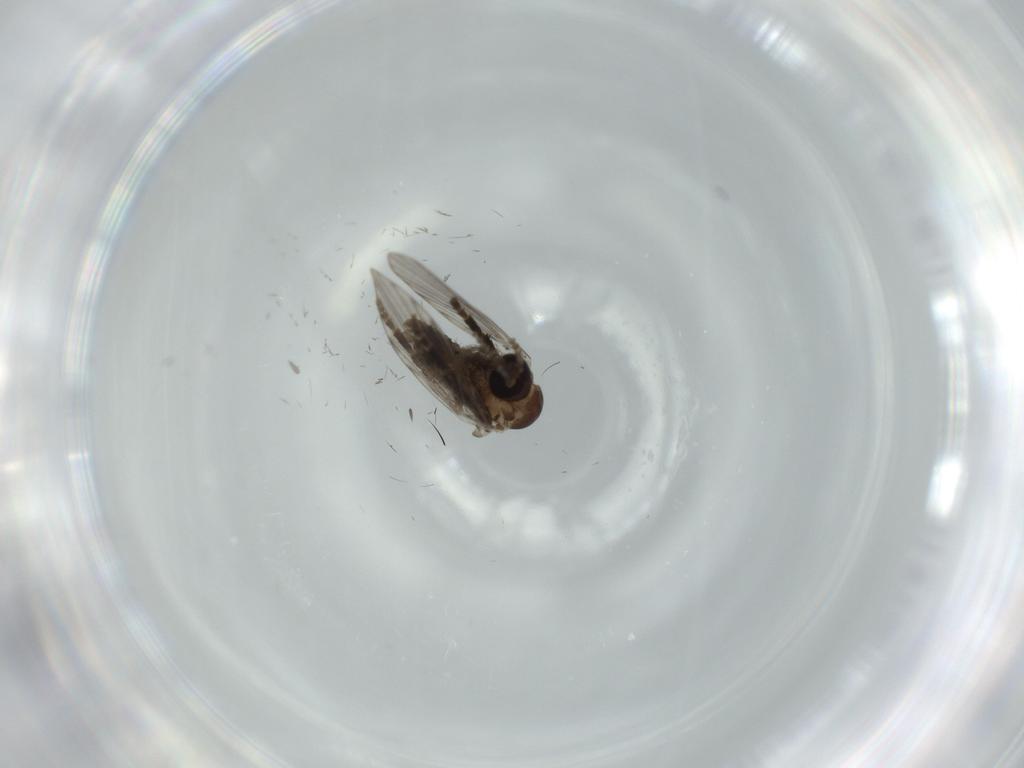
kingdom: Animalia
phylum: Arthropoda
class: Insecta
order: Diptera
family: Psychodidae
